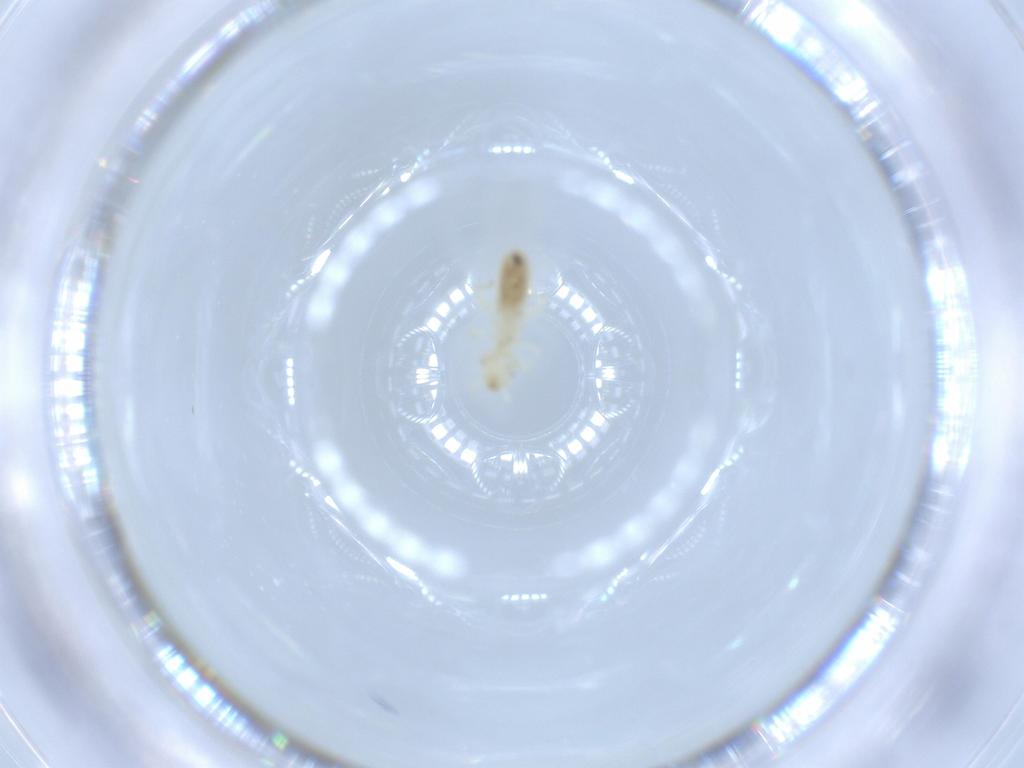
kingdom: Animalia
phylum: Arthropoda
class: Insecta
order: Psocodea
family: Liposcelididae
